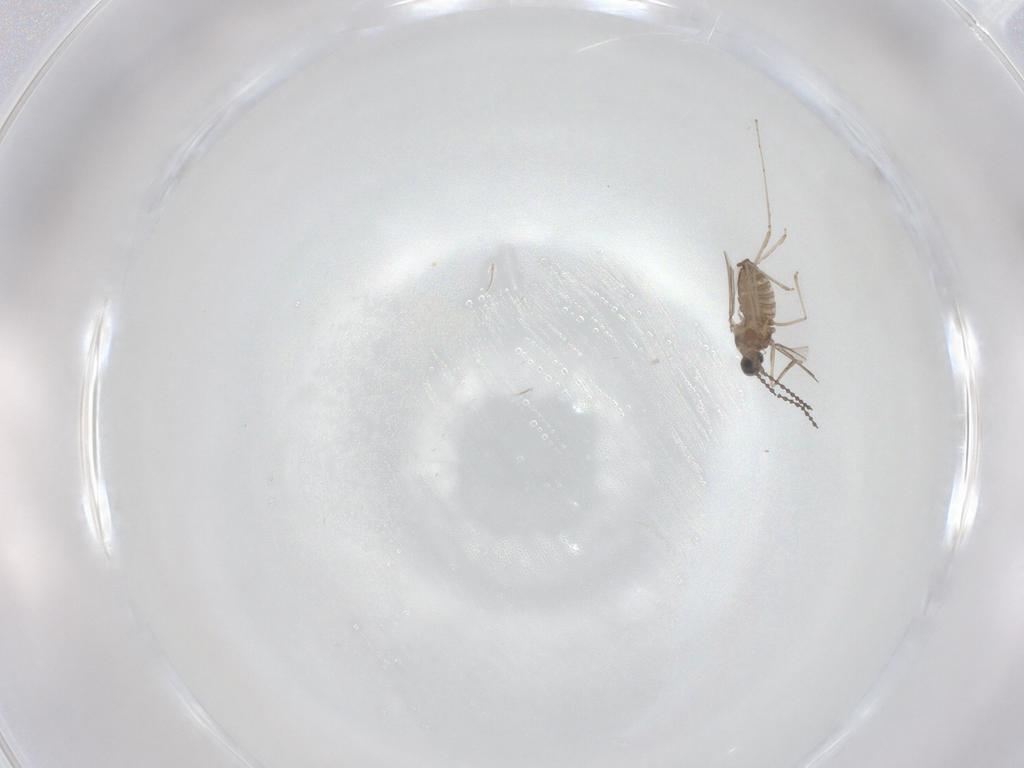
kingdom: Animalia
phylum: Arthropoda
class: Insecta
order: Diptera
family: Cecidomyiidae
